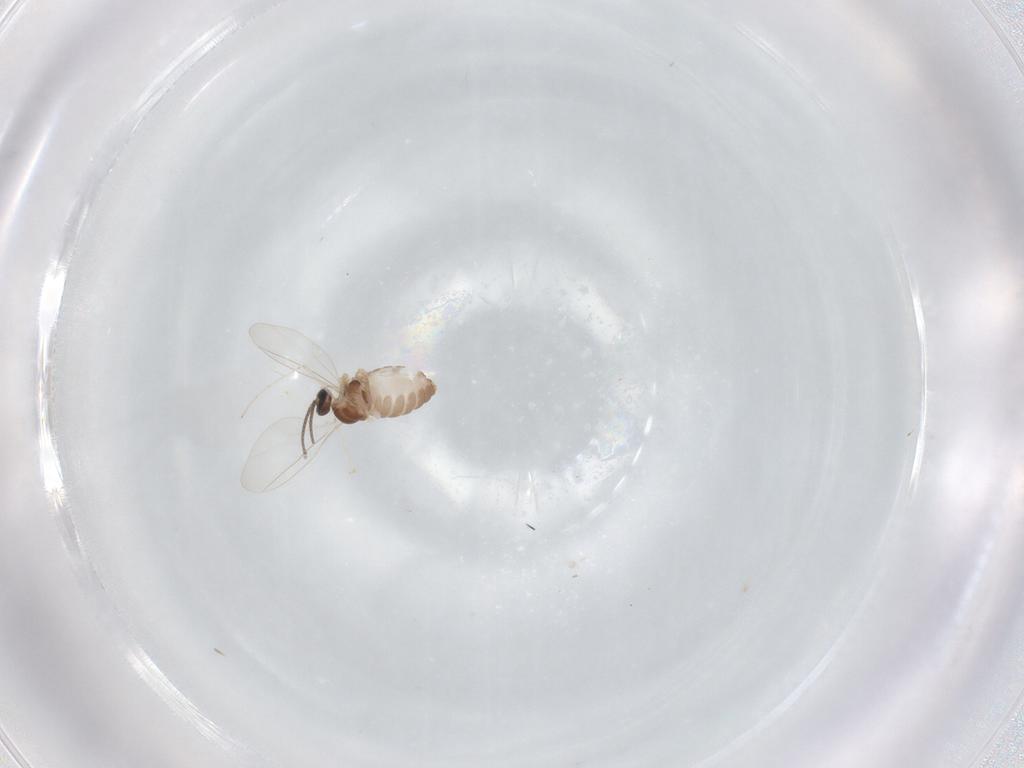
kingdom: Animalia
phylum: Arthropoda
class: Insecta
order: Diptera
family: Cecidomyiidae
